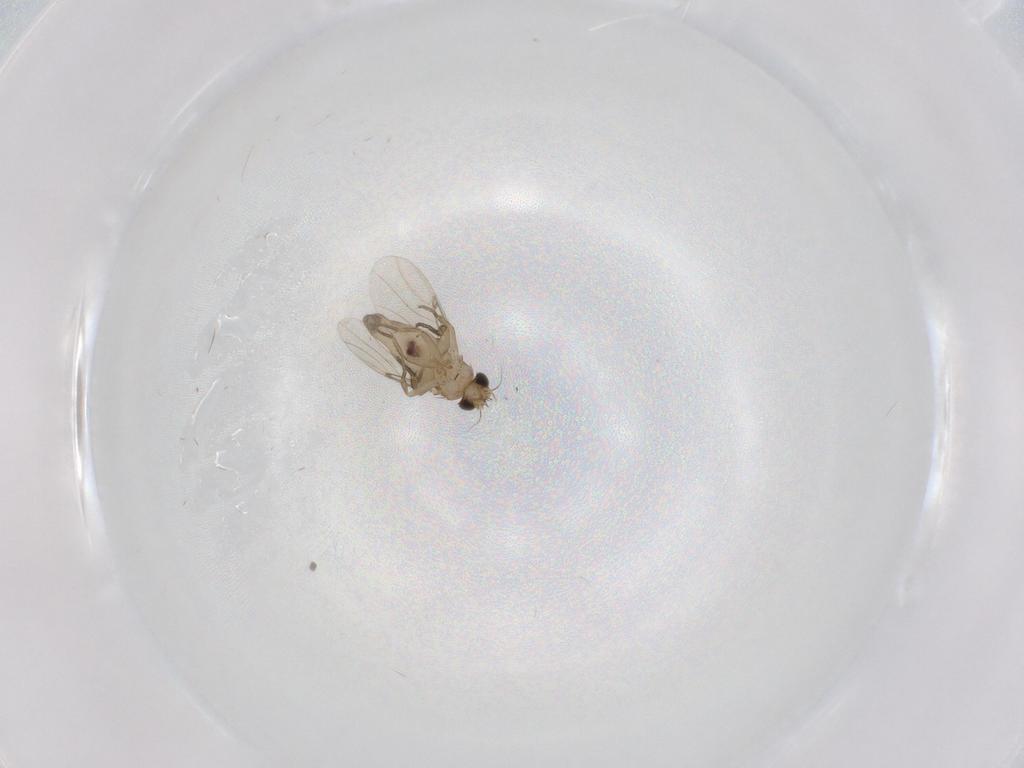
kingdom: Animalia
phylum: Arthropoda
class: Insecta
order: Diptera
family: Phoridae
